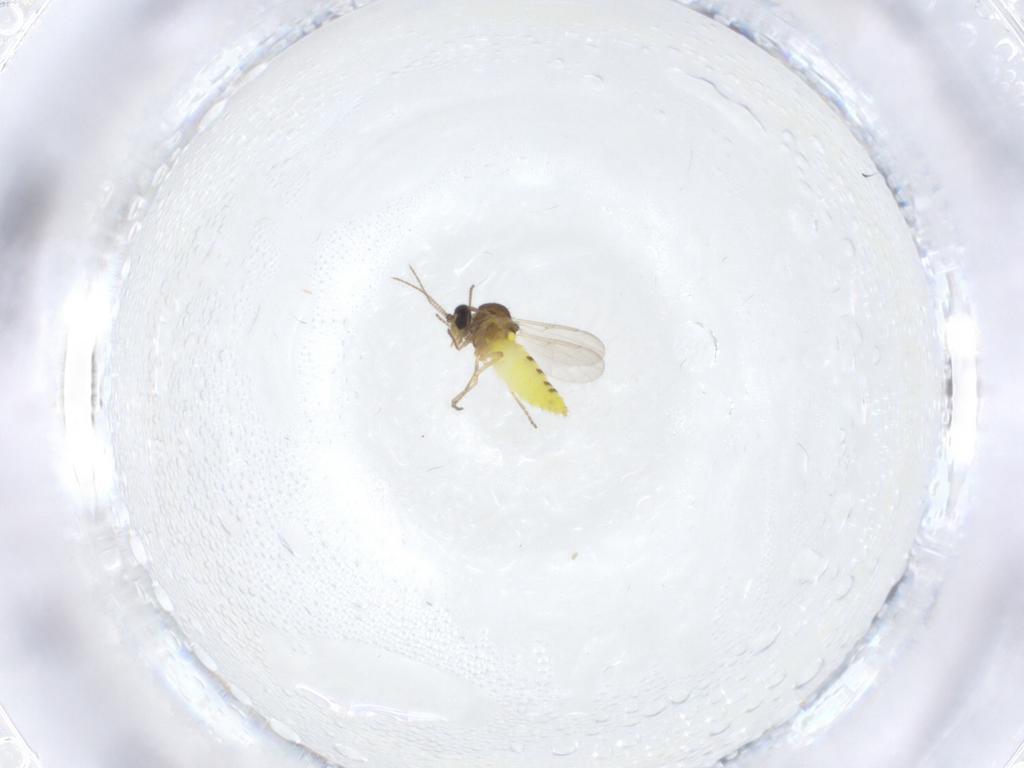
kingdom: Animalia
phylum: Arthropoda
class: Insecta
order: Diptera
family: Ceratopogonidae
